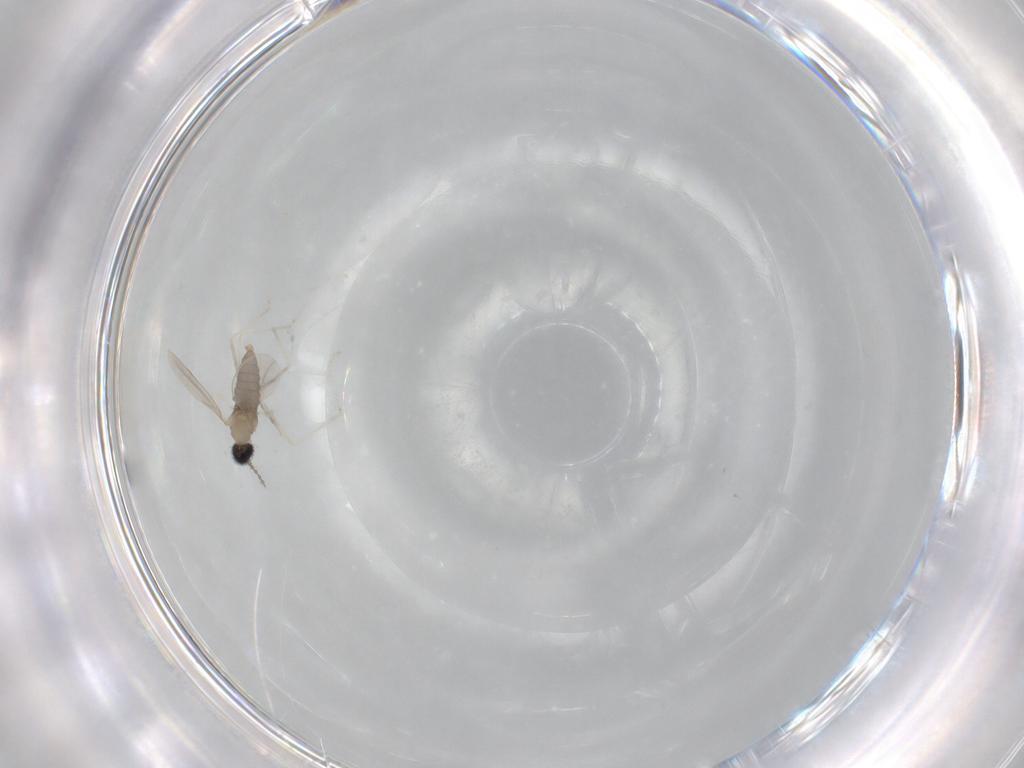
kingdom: Animalia
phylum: Arthropoda
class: Insecta
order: Diptera
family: Cecidomyiidae
